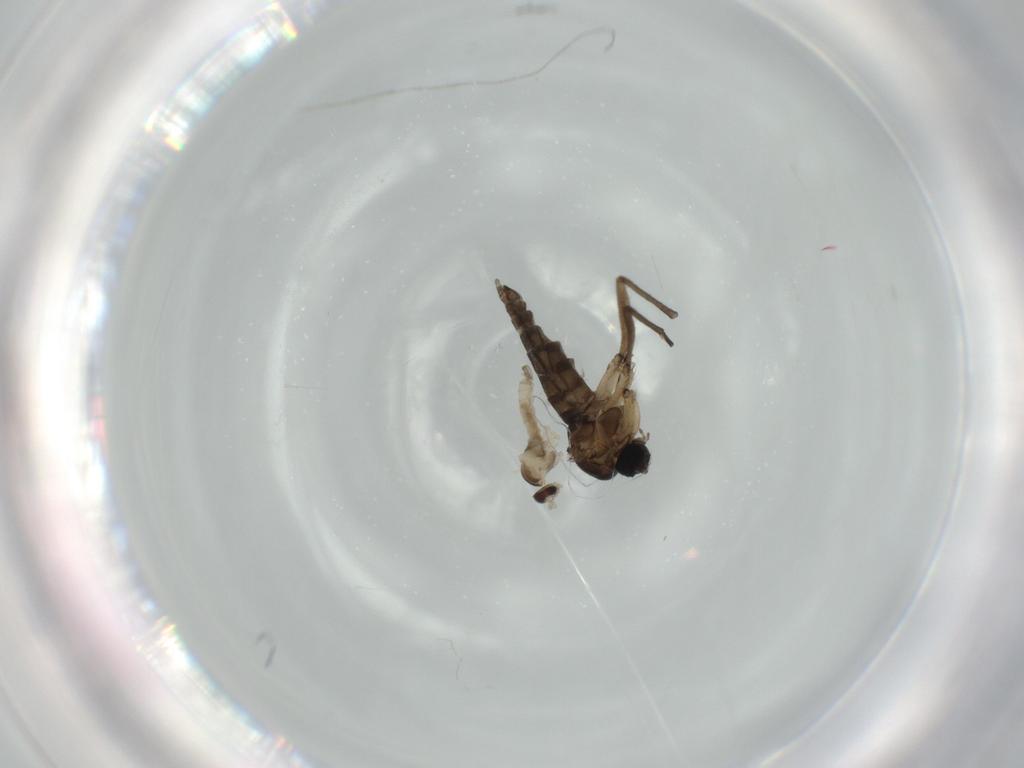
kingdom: Animalia
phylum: Arthropoda
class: Insecta
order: Diptera
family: Cecidomyiidae
